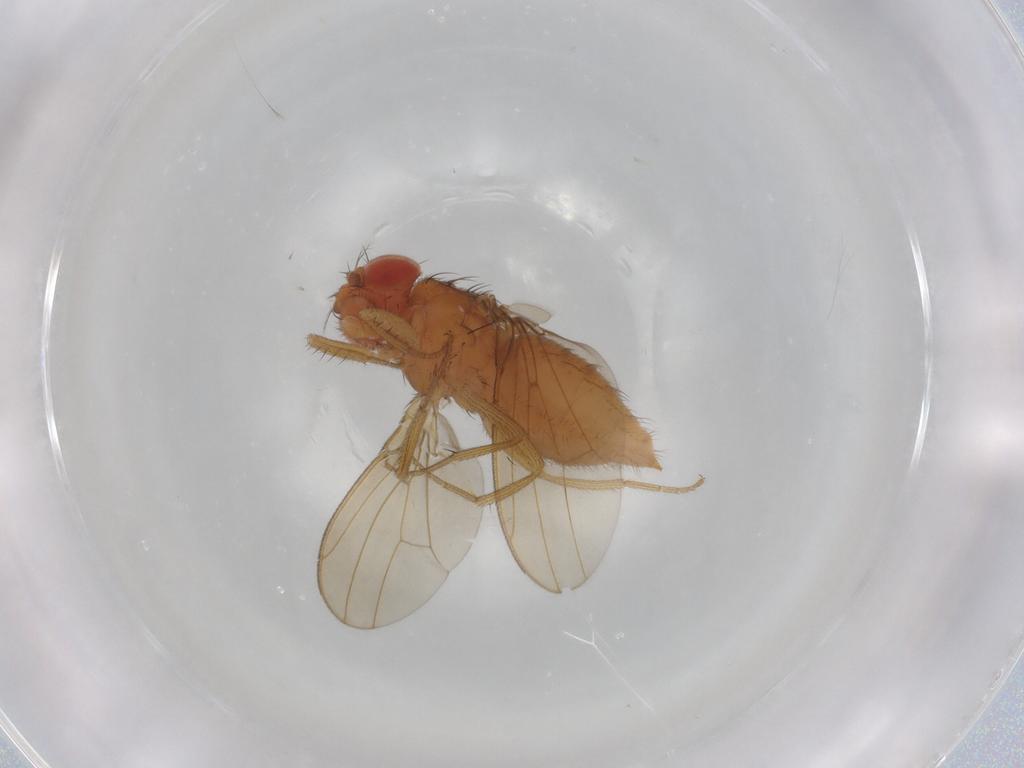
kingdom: Animalia
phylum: Arthropoda
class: Insecta
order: Diptera
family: Drosophilidae
